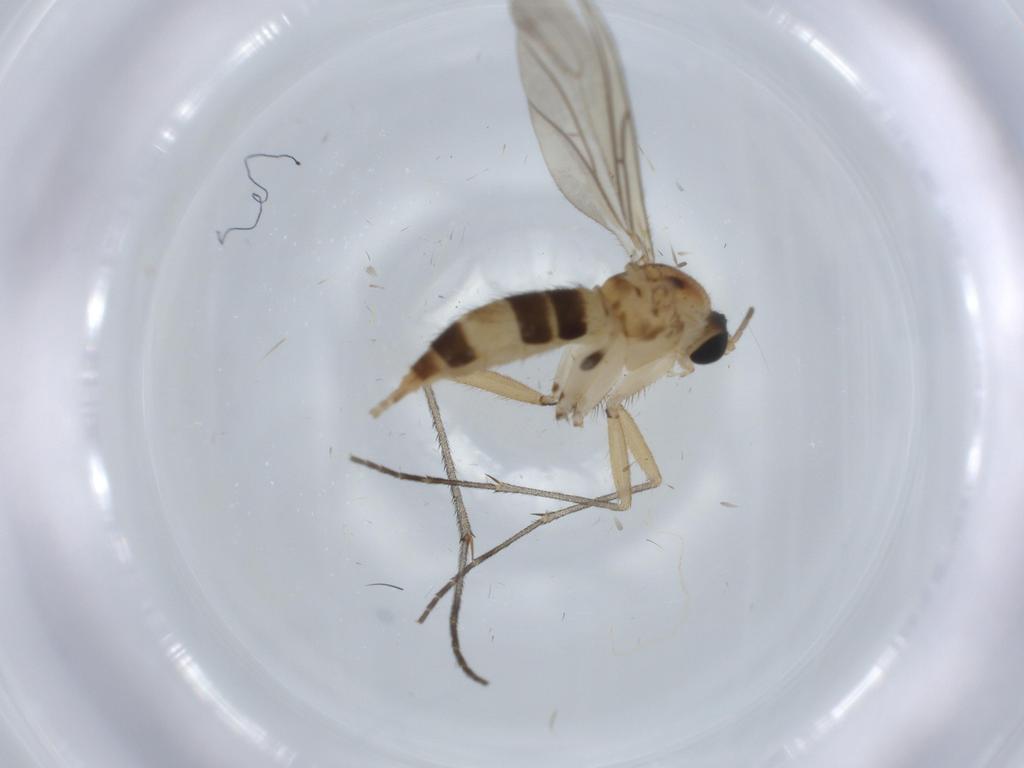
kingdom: Animalia
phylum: Arthropoda
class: Insecta
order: Diptera
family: Sciaridae
